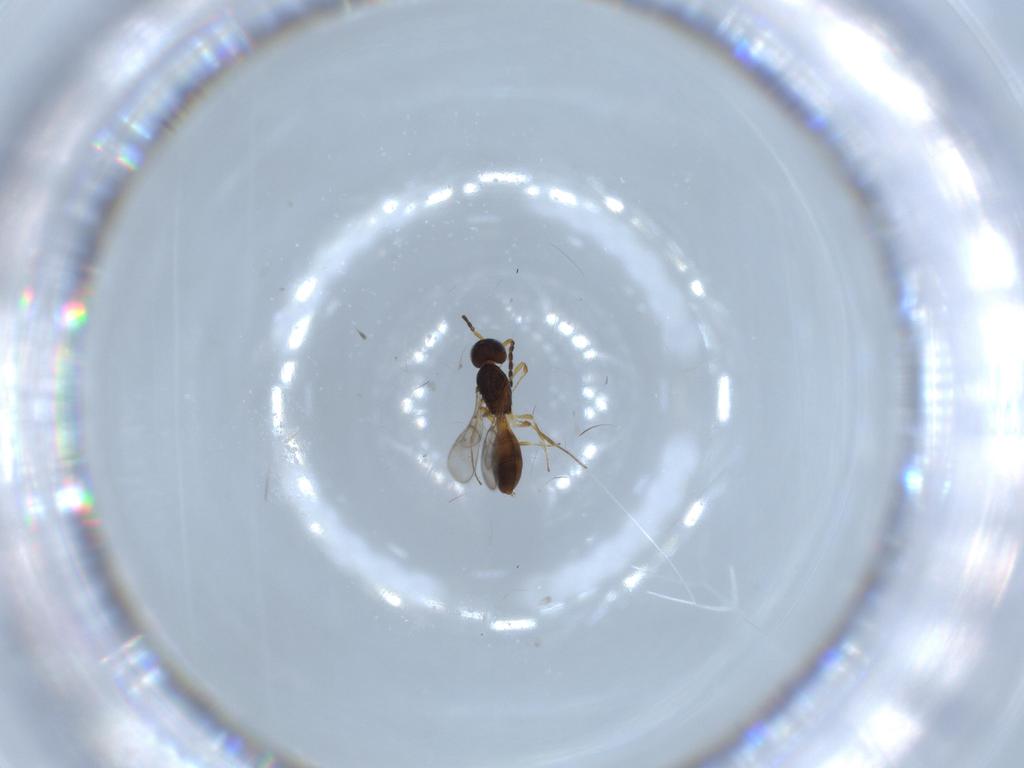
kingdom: Animalia
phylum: Arthropoda
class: Insecta
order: Hymenoptera
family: Scelionidae
